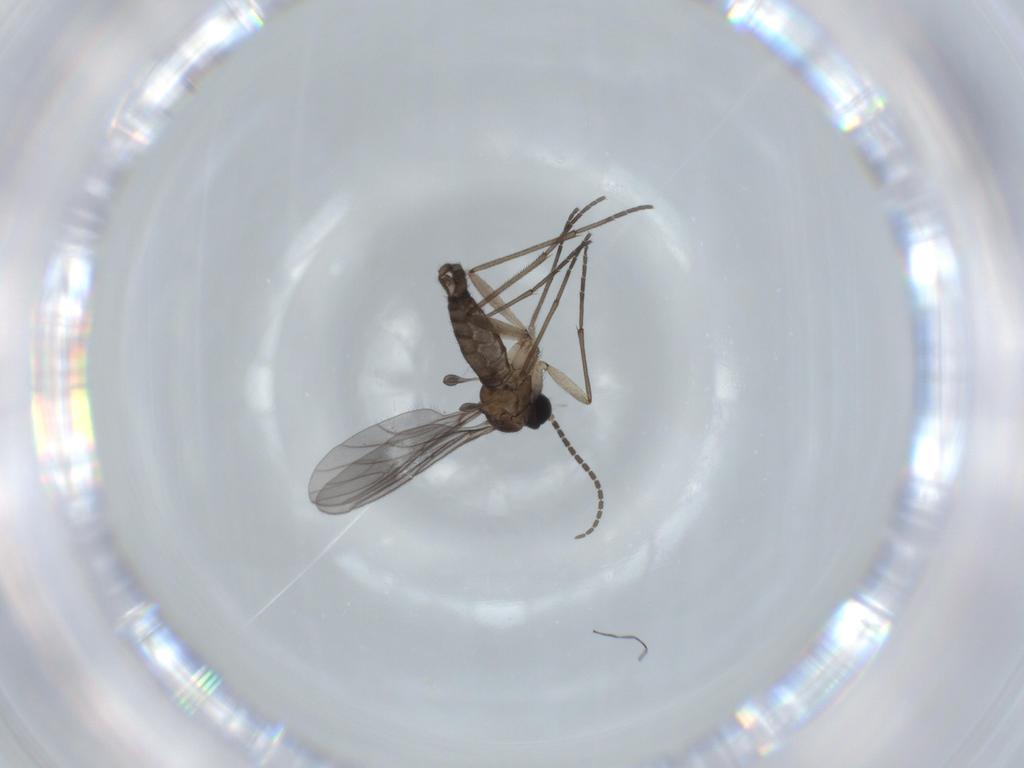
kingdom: Animalia
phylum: Arthropoda
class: Insecta
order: Diptera
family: Sciaridae
